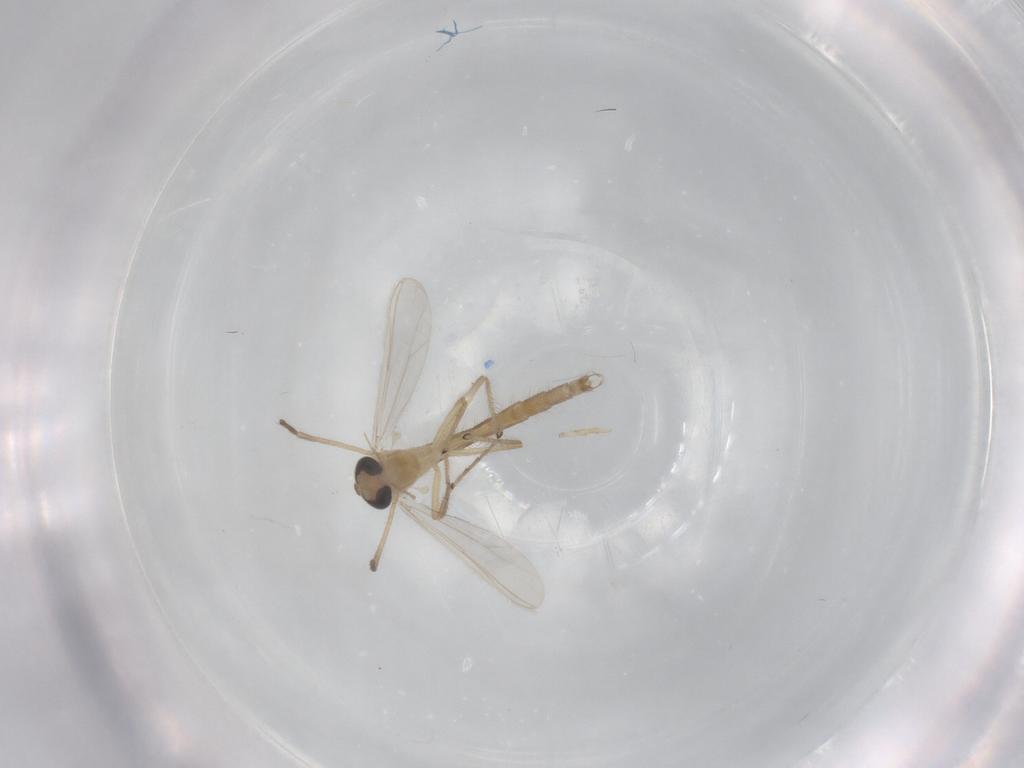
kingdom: Animalia
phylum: Arthropoda
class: Insecta
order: Diptera
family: Chironomidae
